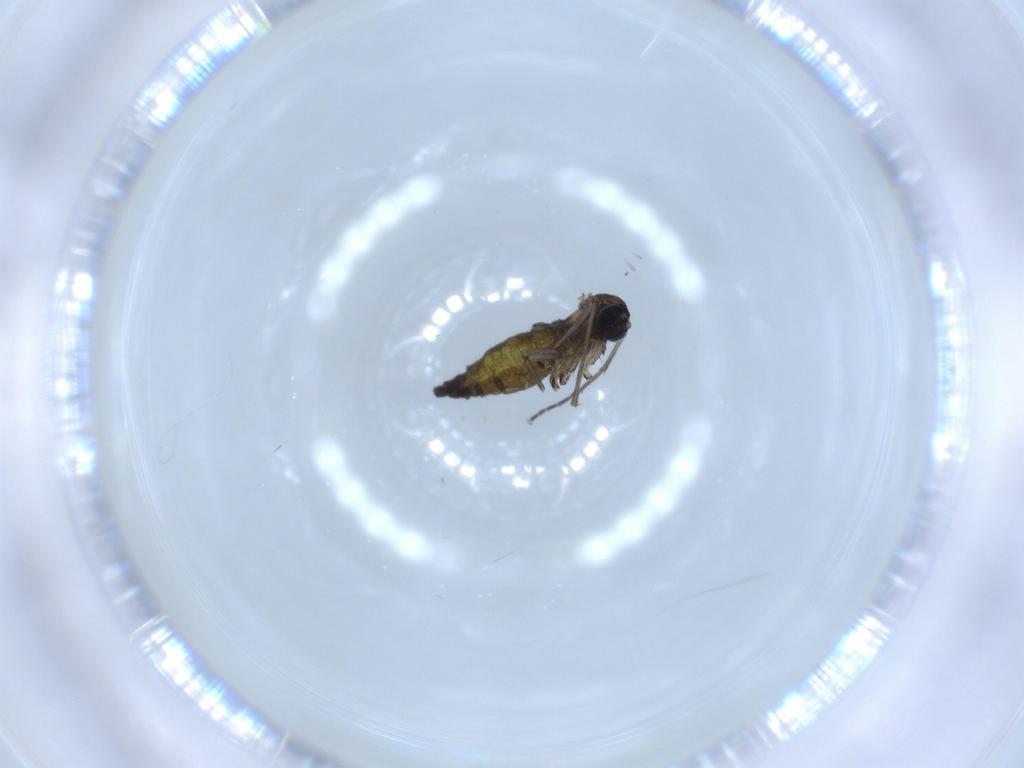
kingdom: Animalia
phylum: Arthropoda
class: Insecta
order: Diptera
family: Sciaridae
